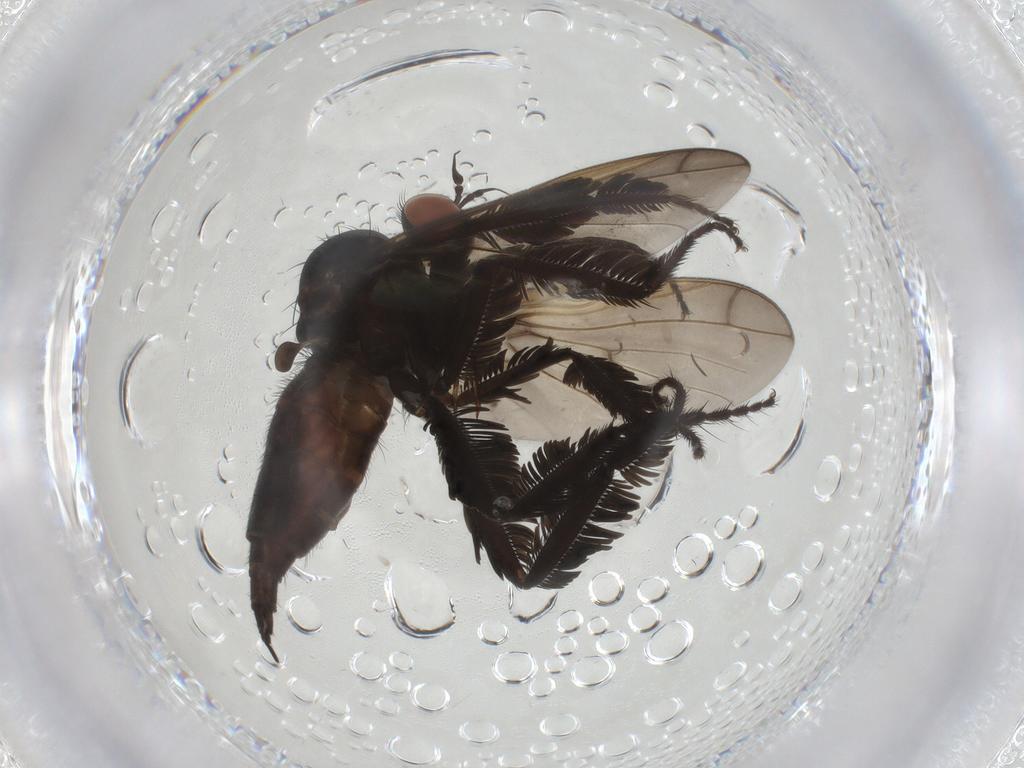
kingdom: Animalia
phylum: Arthropoda
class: Insecta
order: Diptera
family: Empididae
